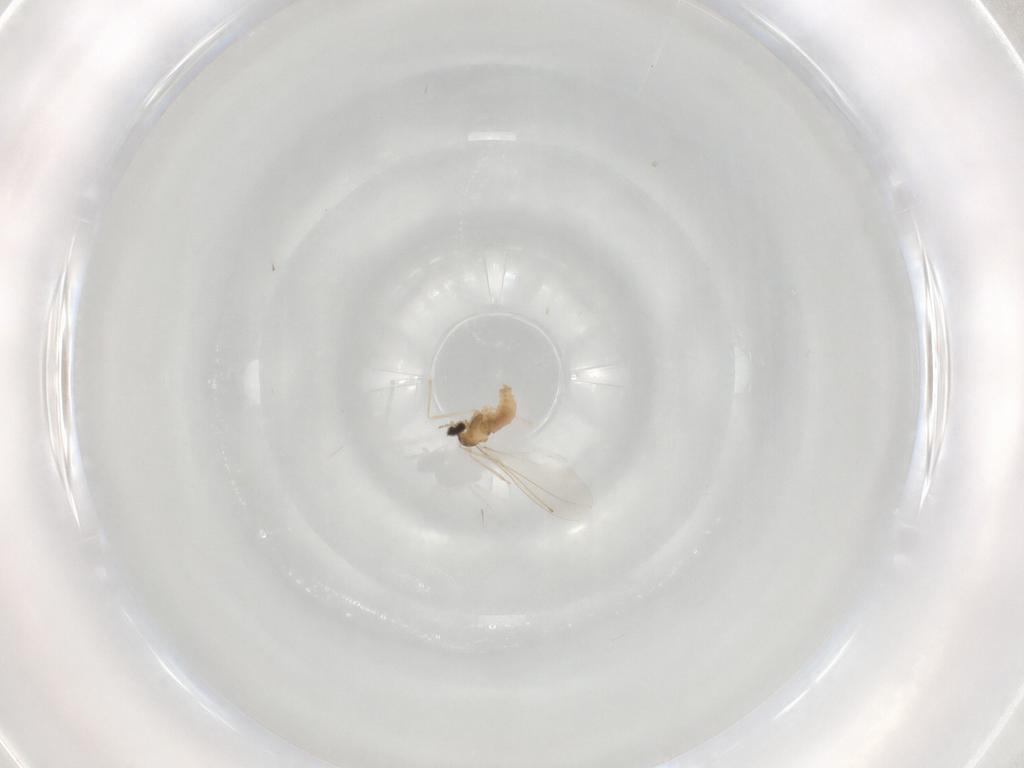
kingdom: Animalia
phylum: Arthropoda
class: Insecta
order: Diptera
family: Cecidomyiidae
